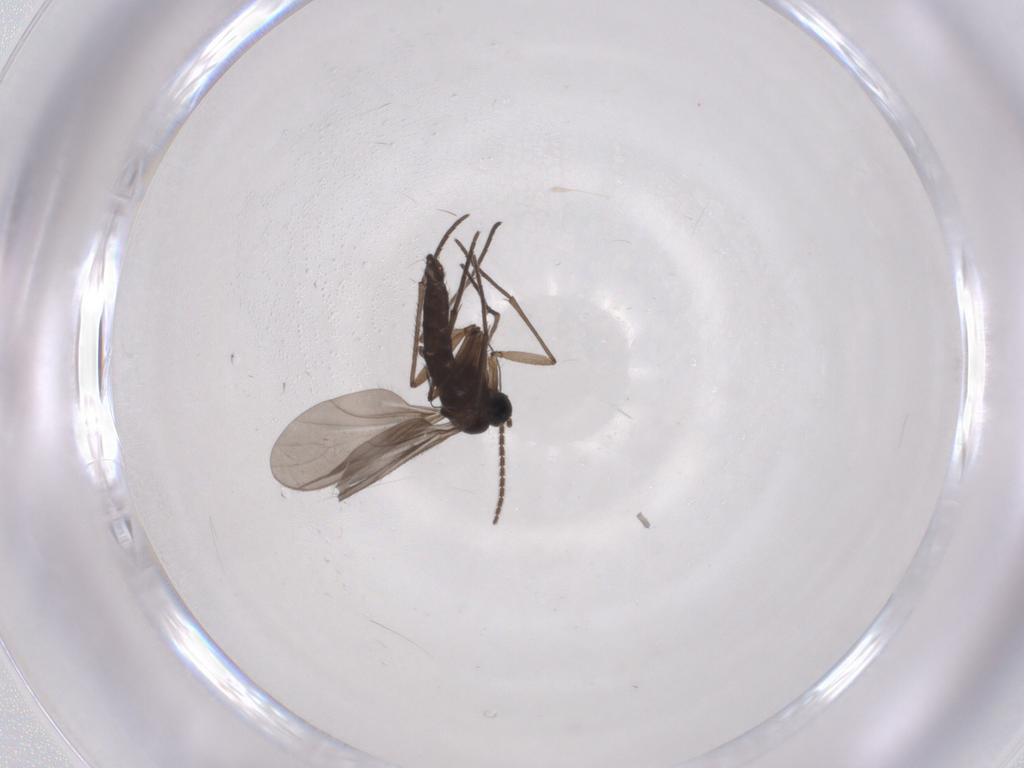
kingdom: Animalia
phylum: Arthropoda
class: Insecta
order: Diptera
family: Sciaridae
